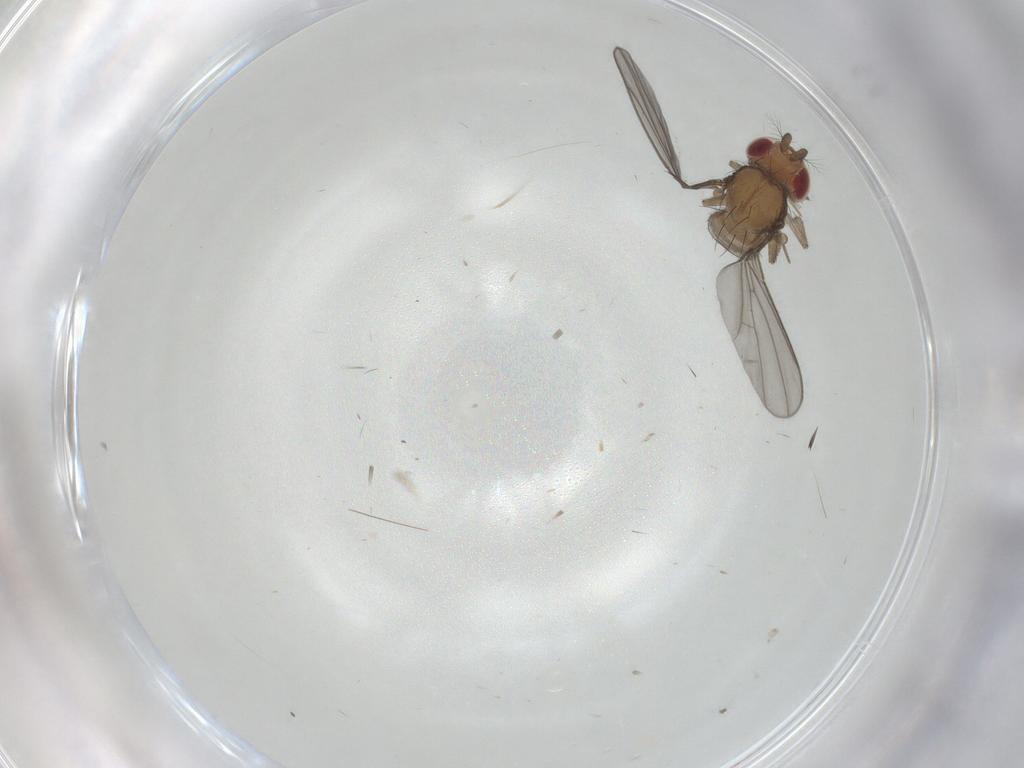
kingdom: Animalia
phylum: Arthropoda
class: Insecta
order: Diptera
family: Drosophilidae
